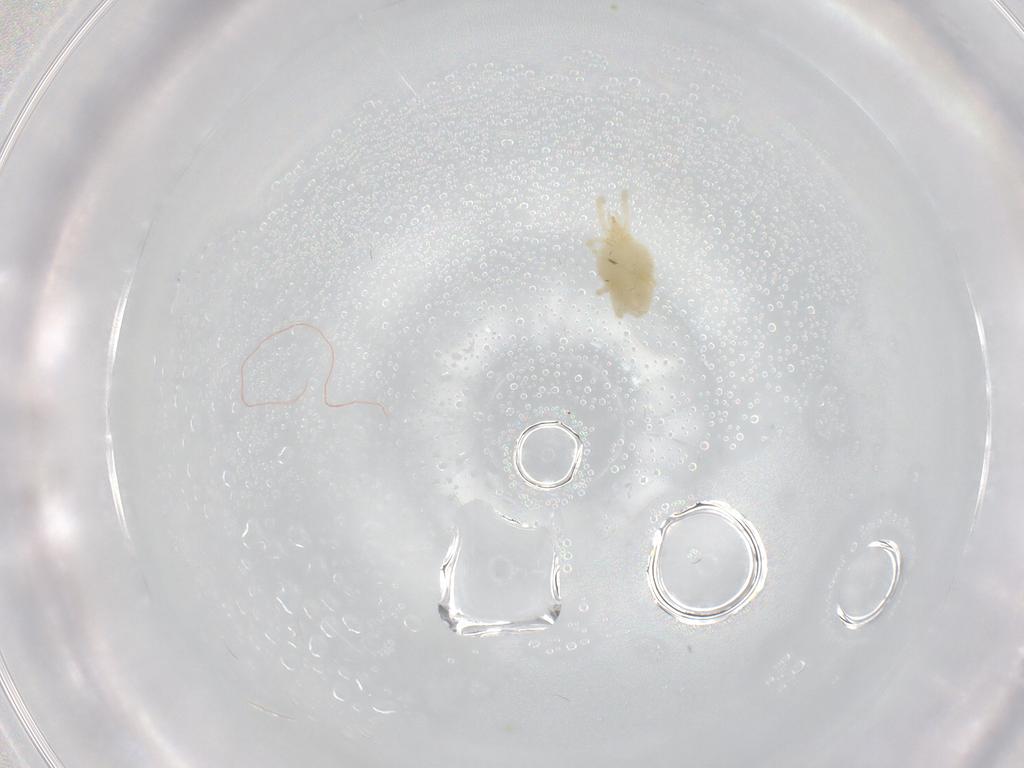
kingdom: Animalia
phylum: Arthropoda
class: Arachnida
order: Trombidiformes
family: Erythraeidae
